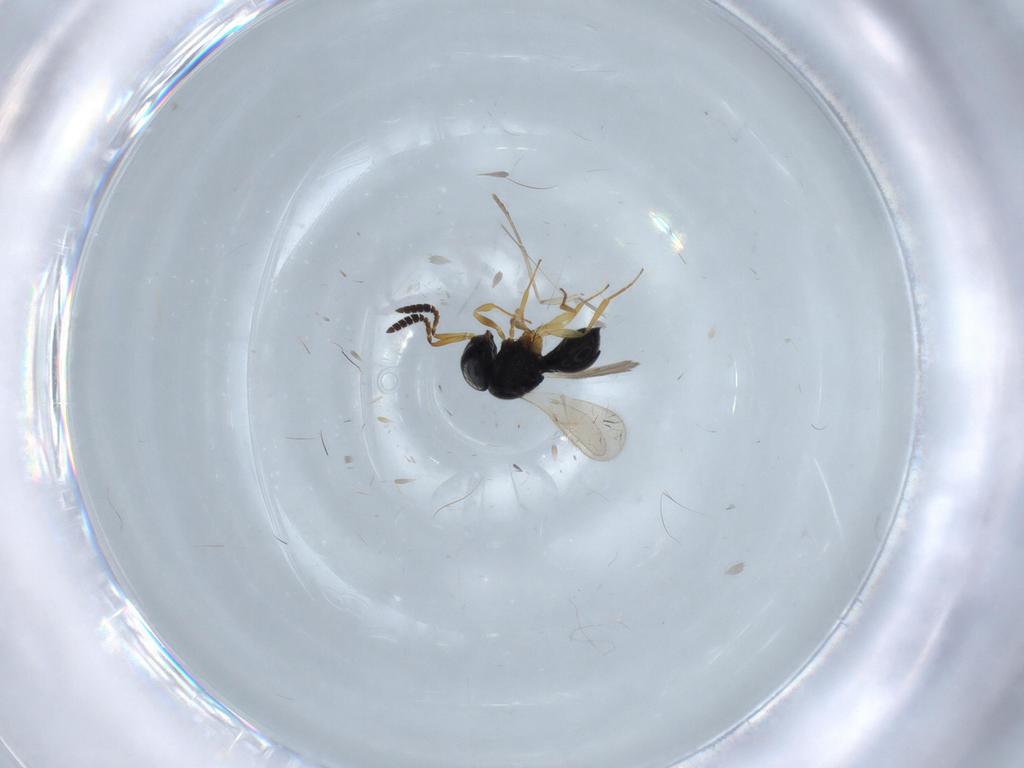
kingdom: Animalia
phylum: Arthropoda
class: Insecta
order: Hymenoptera
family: Scelionidae
